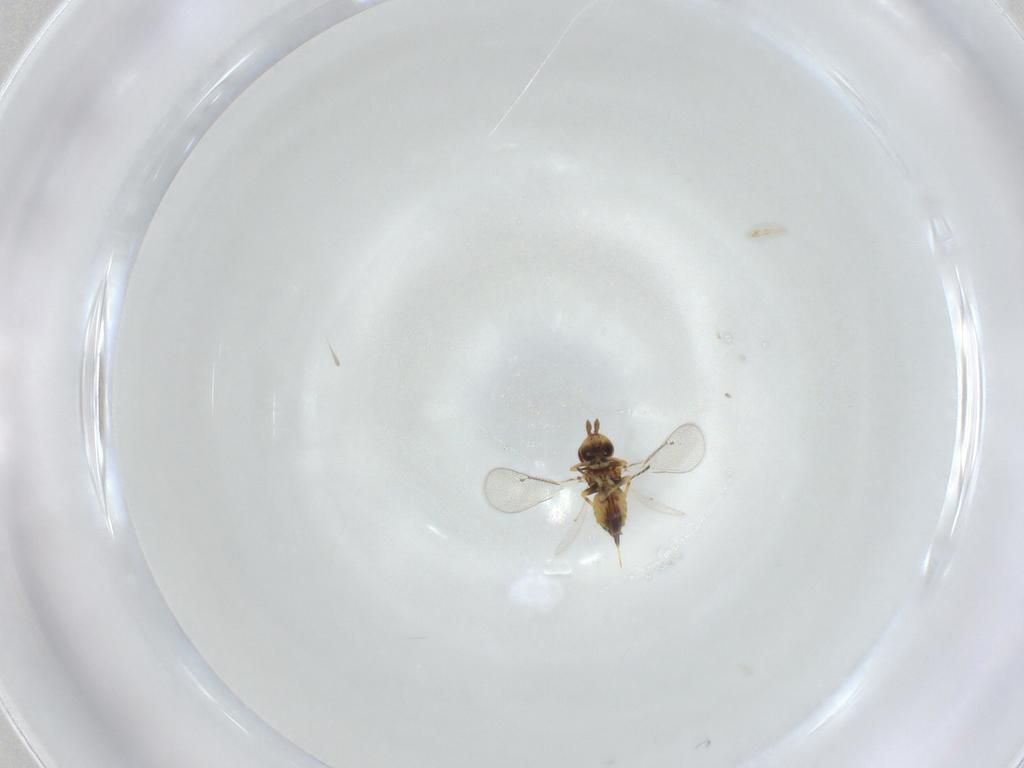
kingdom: Animalia
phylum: Arthropoda
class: Insecta
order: Hymenoptera
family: Eulophidae
